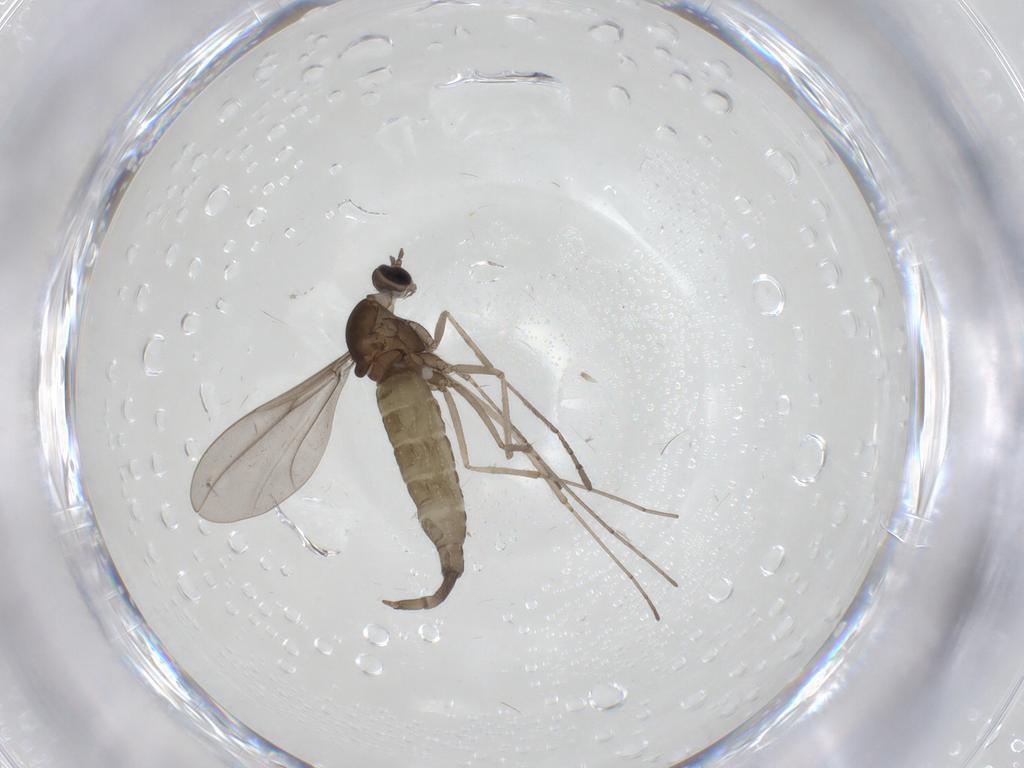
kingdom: Animalia
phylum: Arthropoda
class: Insecta
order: Diptera
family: Cecidomyiidae
